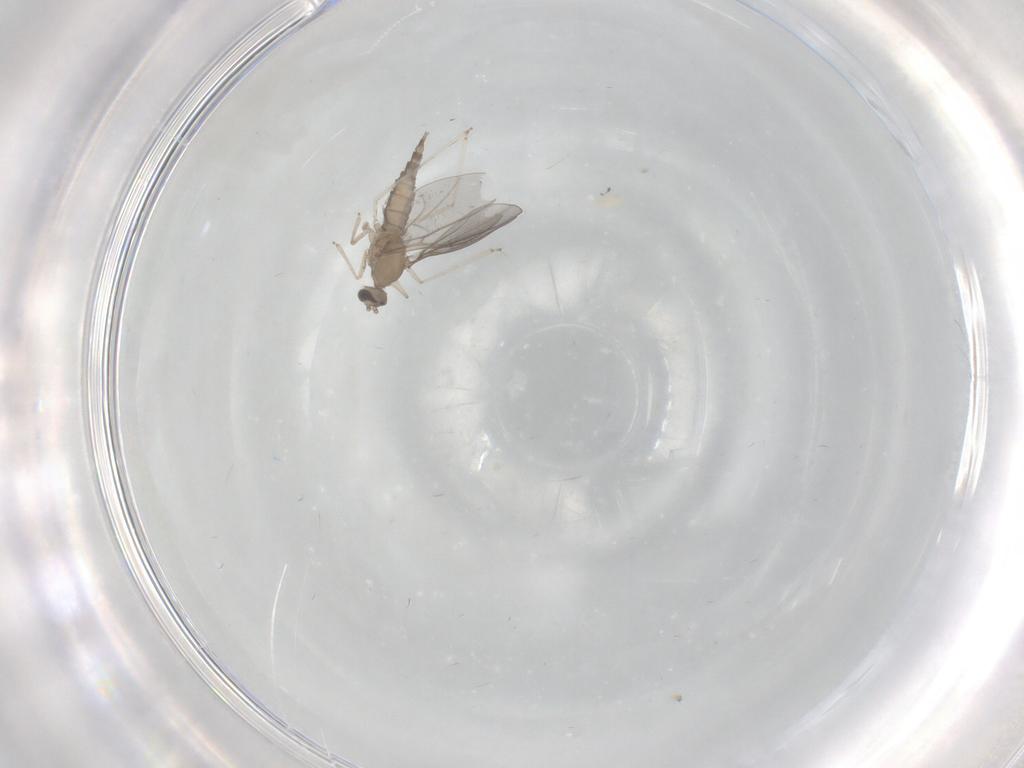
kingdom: Animalia
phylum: Arthropoda
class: Insecta
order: Diptera
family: Cecidomyiidae
